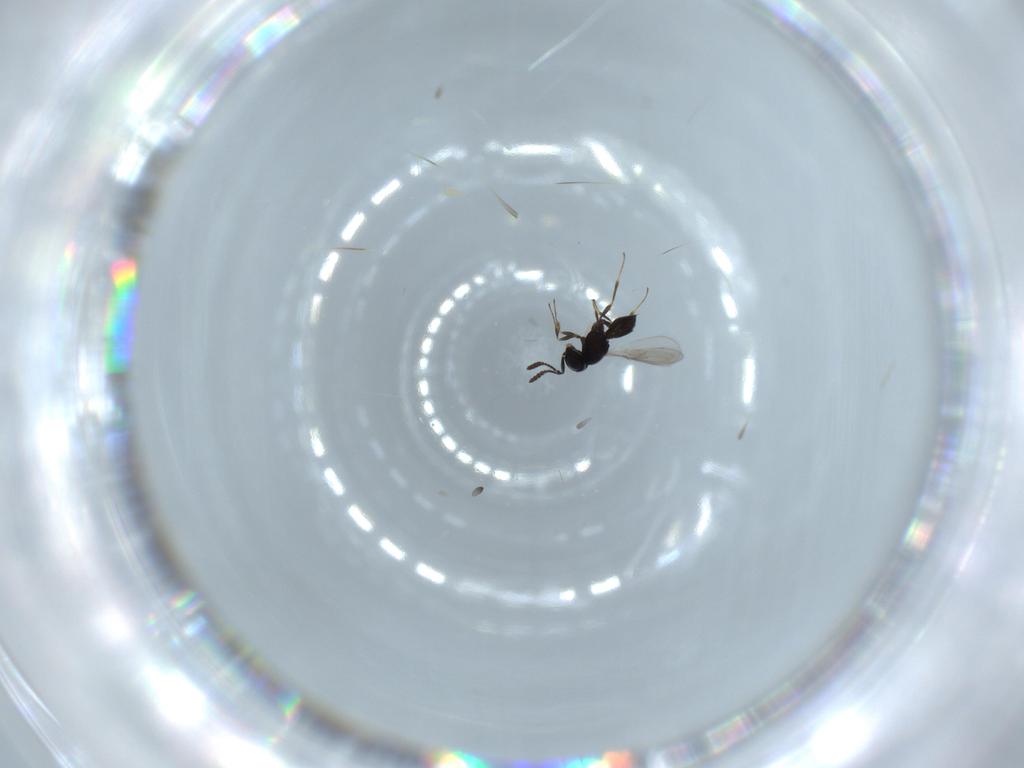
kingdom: Animalia
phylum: Arthropoda
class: Insecta
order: Hymenoptera
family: Scelionidae
